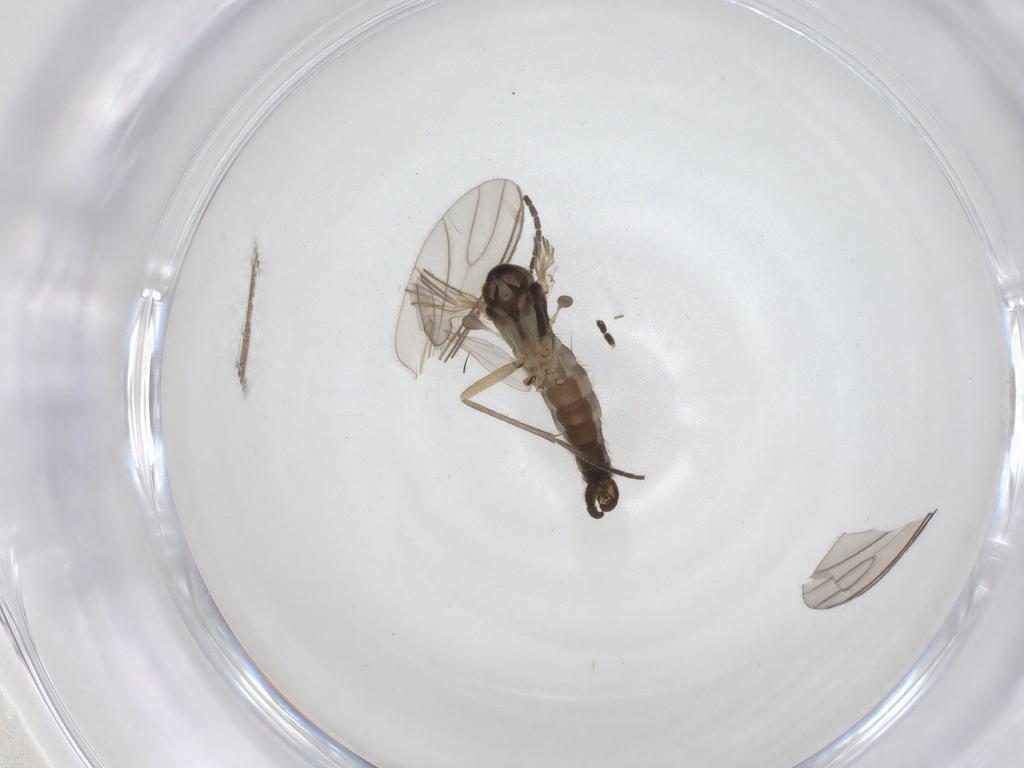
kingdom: Animalia
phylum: Arthropoda
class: Insecta
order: Diptera
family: Sciaridae
